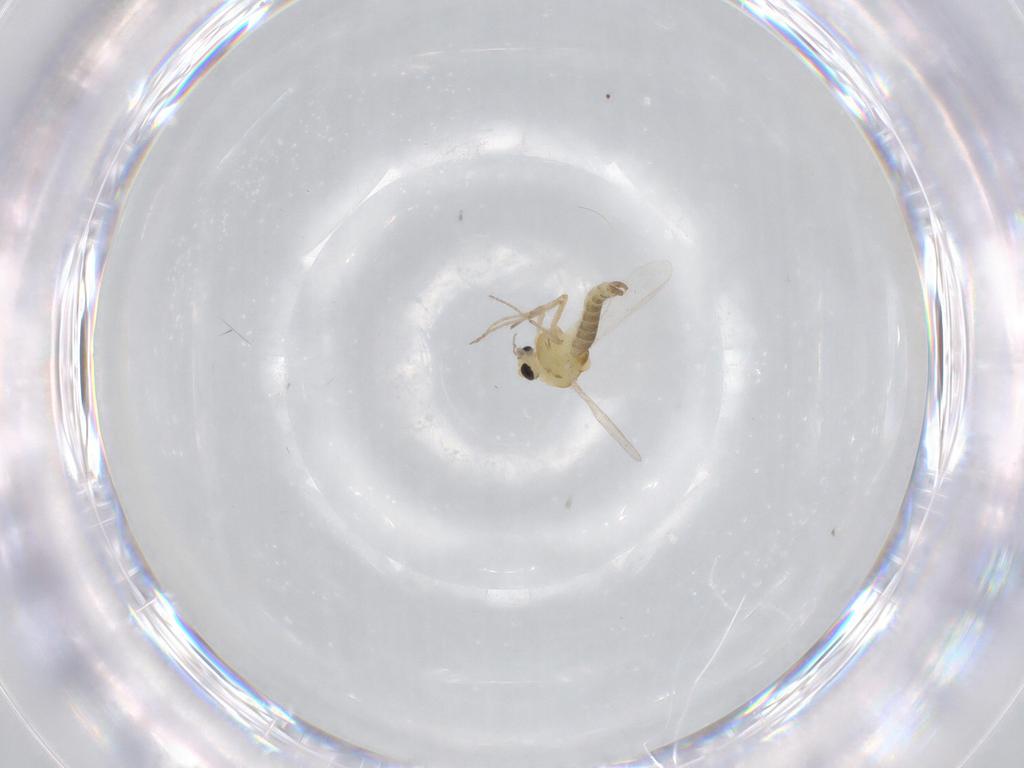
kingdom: Animalia
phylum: Arthropoda
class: Insecta
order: Diptera
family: Chironomidae
